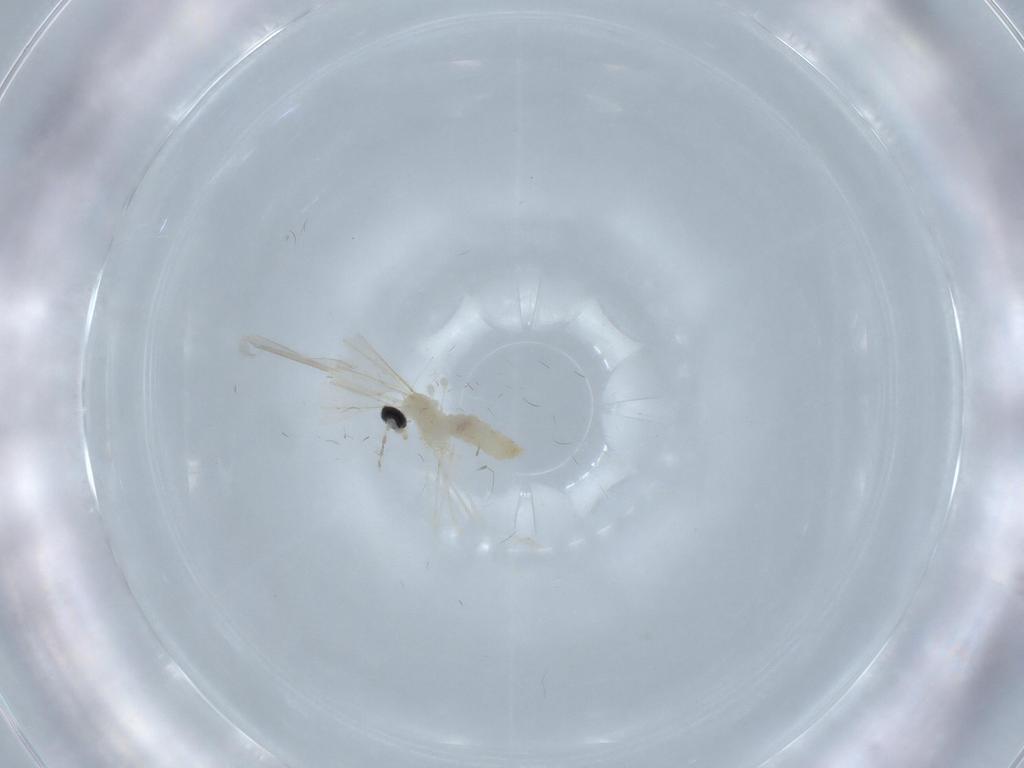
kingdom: Animalia
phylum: Arthropoda
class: Insecta
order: Diptera
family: Cecidomyiidae
